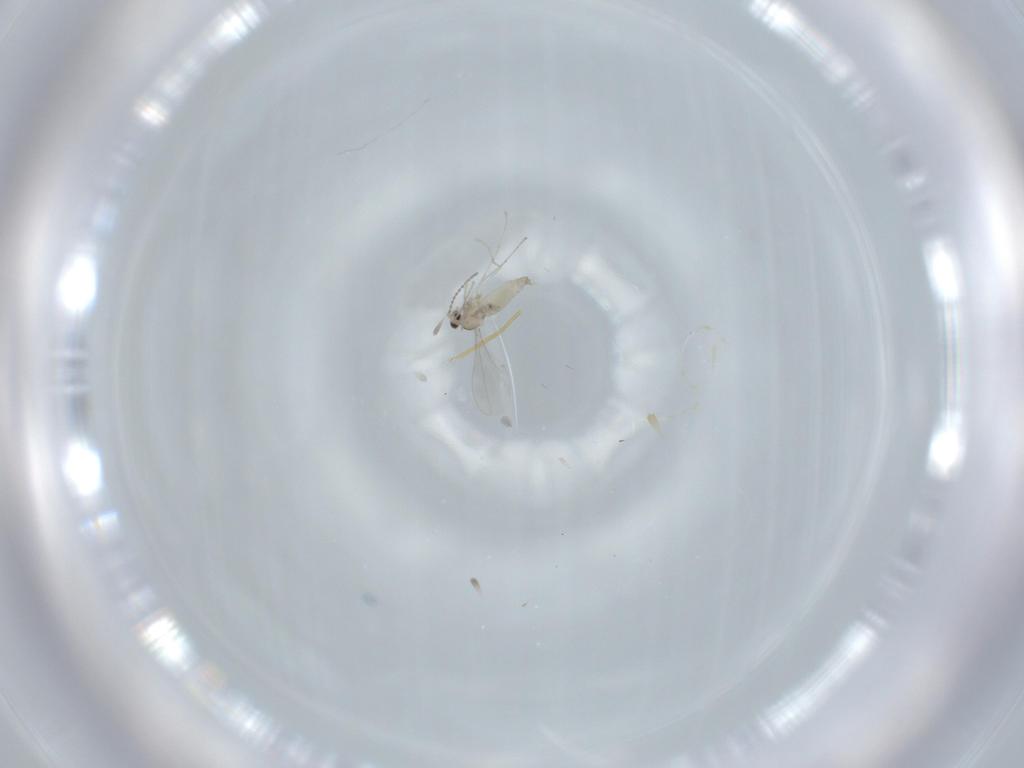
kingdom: Animalia
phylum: Arthropoda
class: Insecta
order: Diptera
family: Cecidomyiidae
